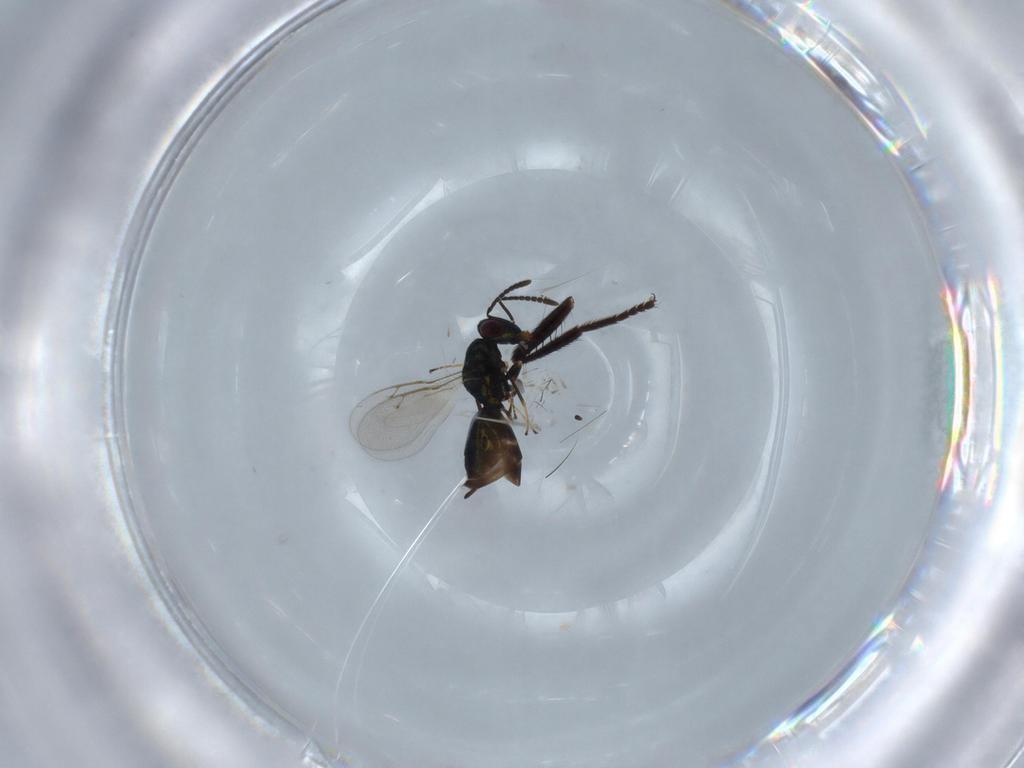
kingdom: Animalia
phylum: Arthropoda
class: Insecta
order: Hymenoptera
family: Pteromalidae
